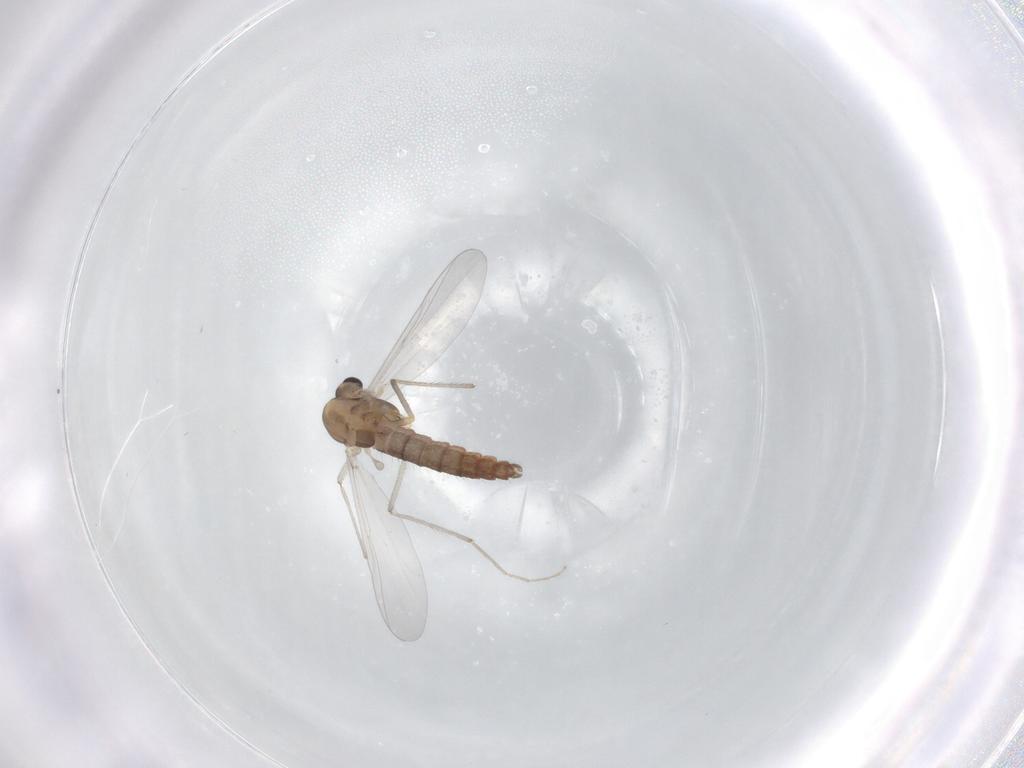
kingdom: Animalia
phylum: Arthropoda
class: Insecta
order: Diptera
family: Chironomidae
